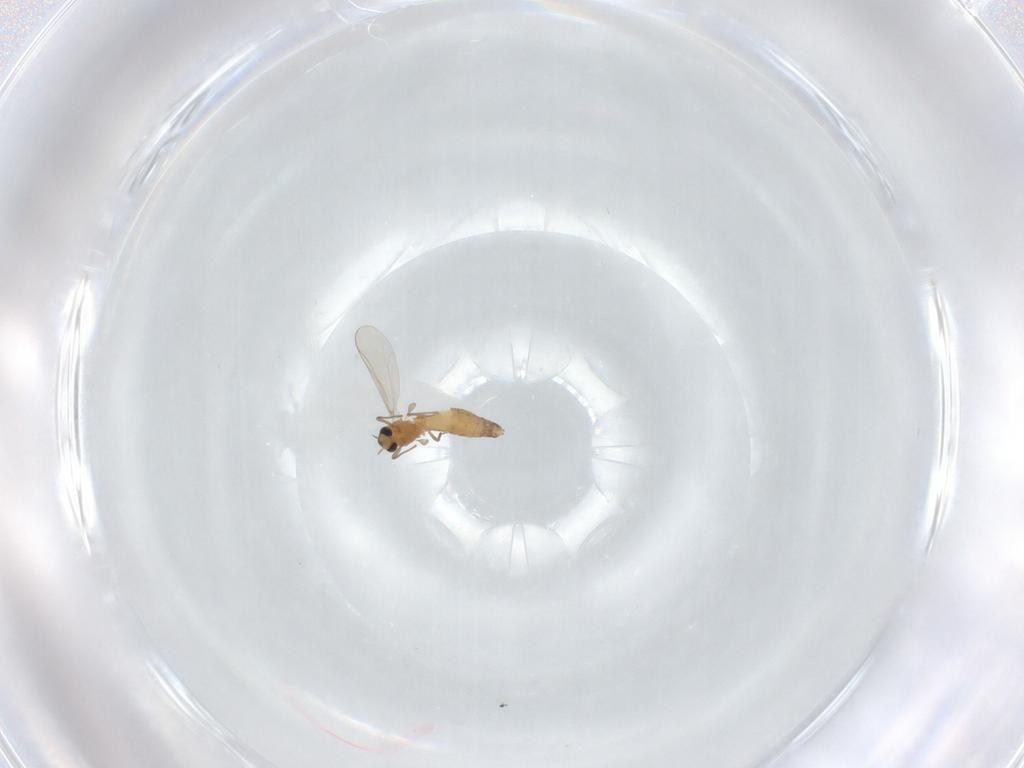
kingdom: Animalia
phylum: Arthropoda
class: Insecta
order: Diptera
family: Chironomidae
